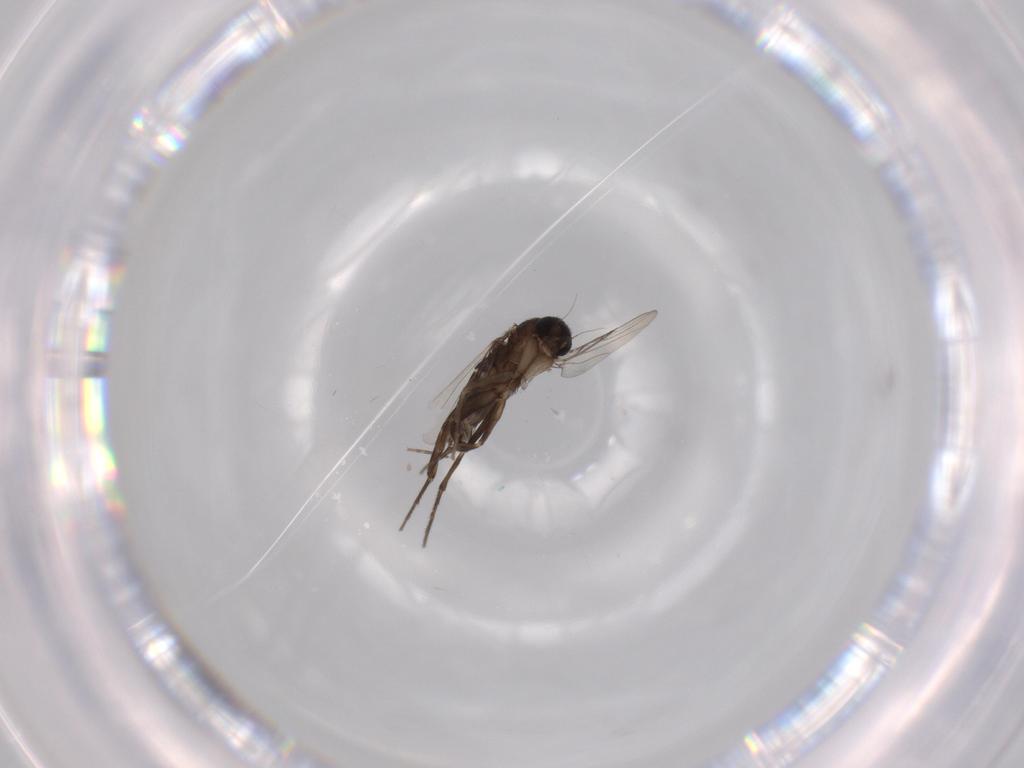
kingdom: Animalia
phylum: Arthropoda
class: Insecta
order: Diptera
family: Phoridae
